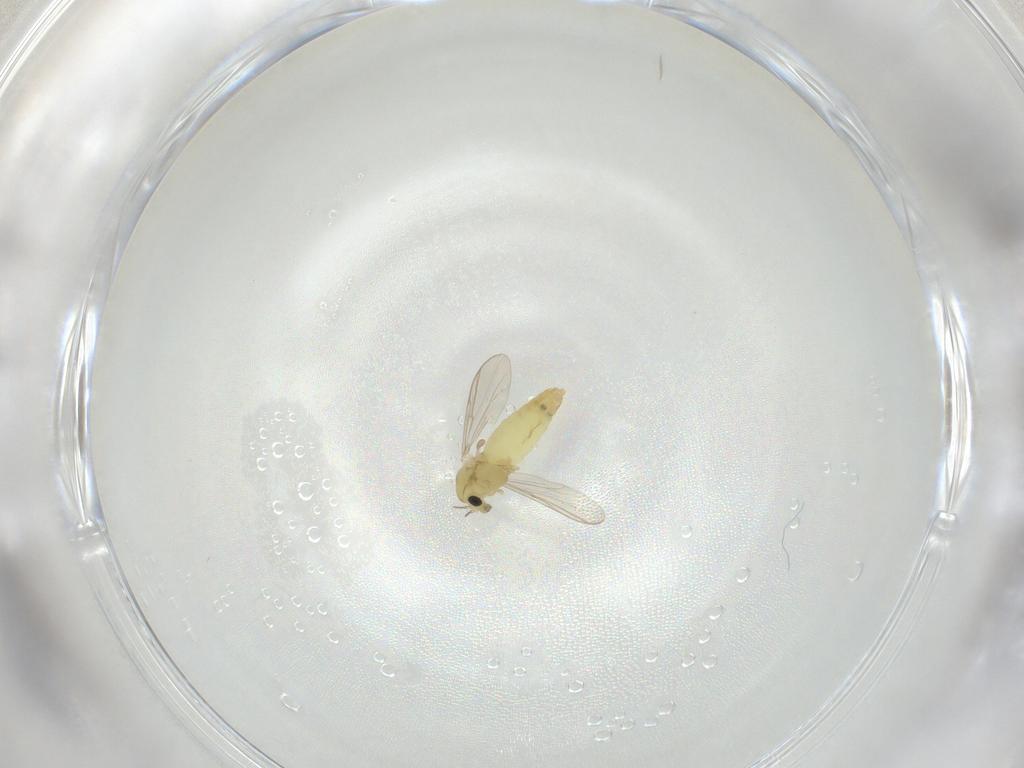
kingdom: Animalia
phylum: Arthropoda
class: Insecta
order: Diptera
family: Chironomidae
